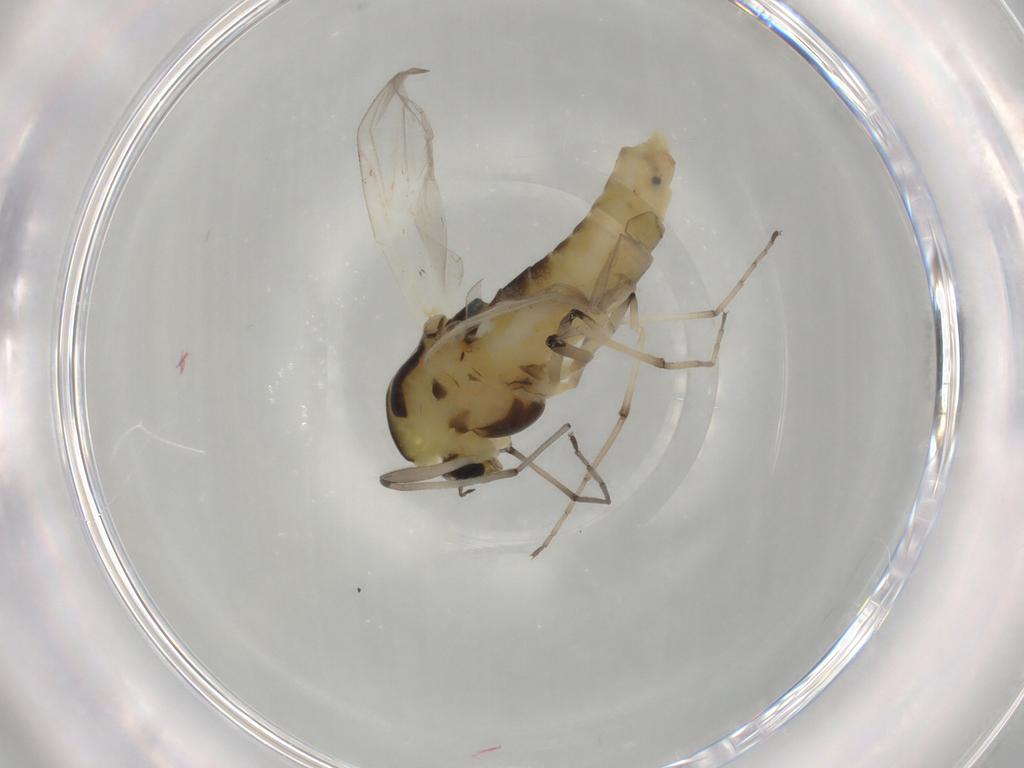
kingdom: Animalia
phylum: Arthropoda
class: Insecta
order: Diptera
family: Chironomidae
